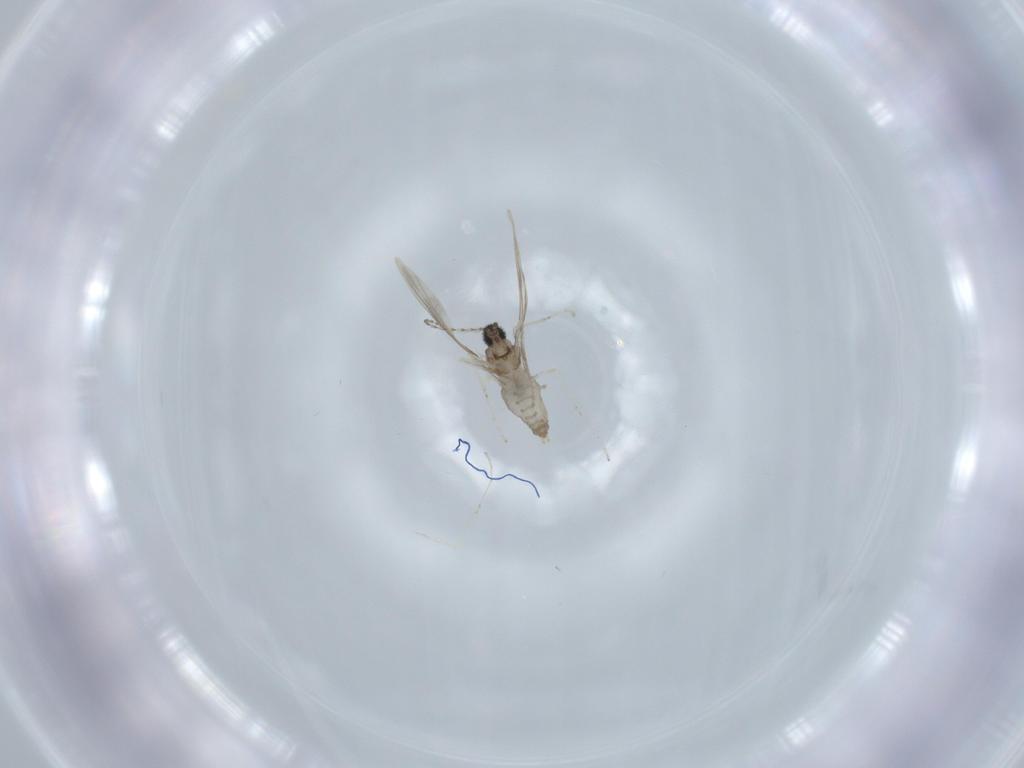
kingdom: Animalia
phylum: Arthropoda
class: Insecta
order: Diptera
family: Cecidomyiidae
